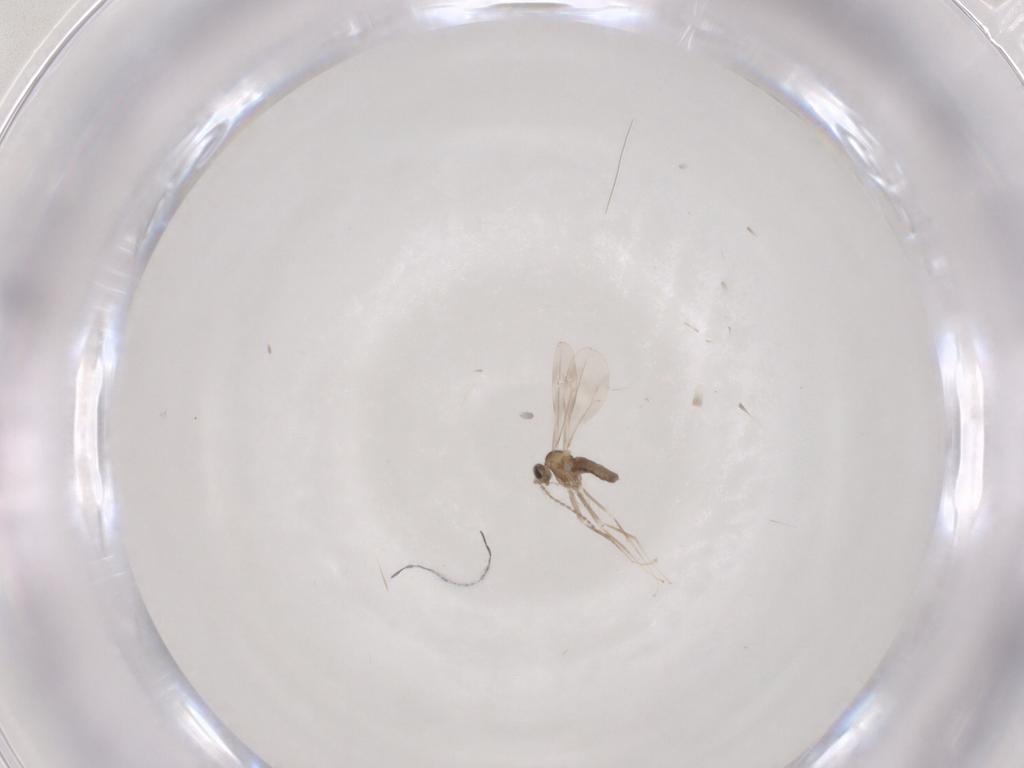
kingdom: Animalia
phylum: Arthropoda
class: Insecta
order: Diptera
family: Cecidomyiidae
